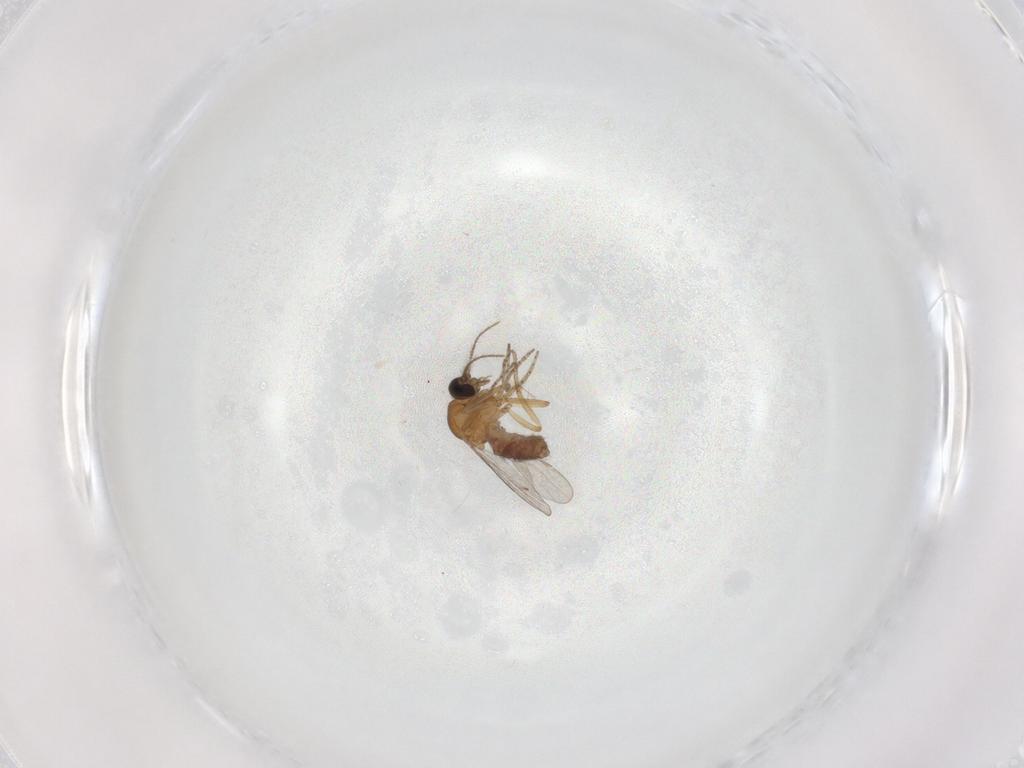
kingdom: Animalia
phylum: Arthropoda
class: Insecta
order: Diptera
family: Ceratopogonidae
